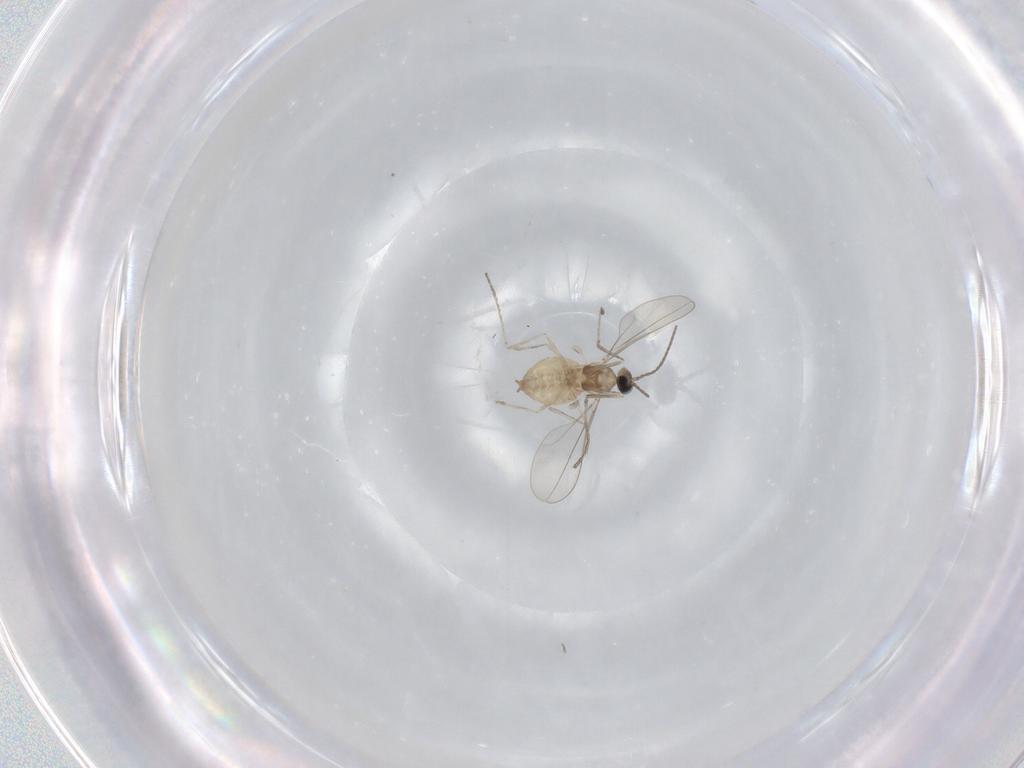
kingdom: Animalia
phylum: Arthropoda
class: Insecta
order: Diptera
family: Cecidomyiidae
